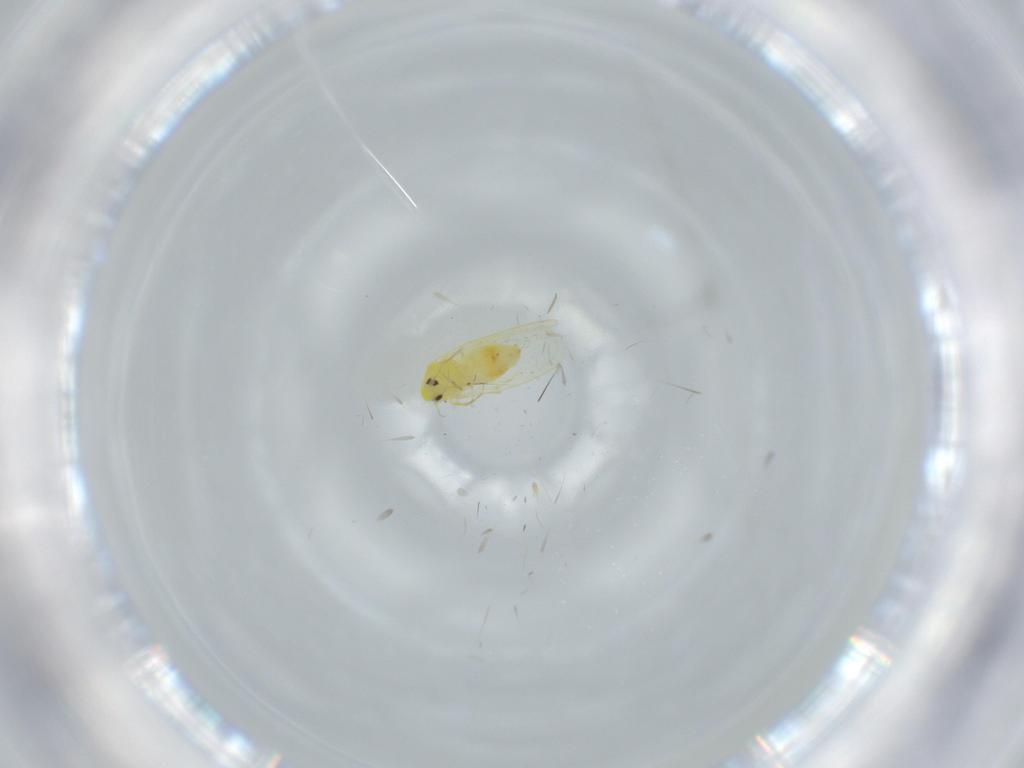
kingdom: Animalia
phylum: Arthropoda
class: Insecta
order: Hemiptera
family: Aleyrodidae
